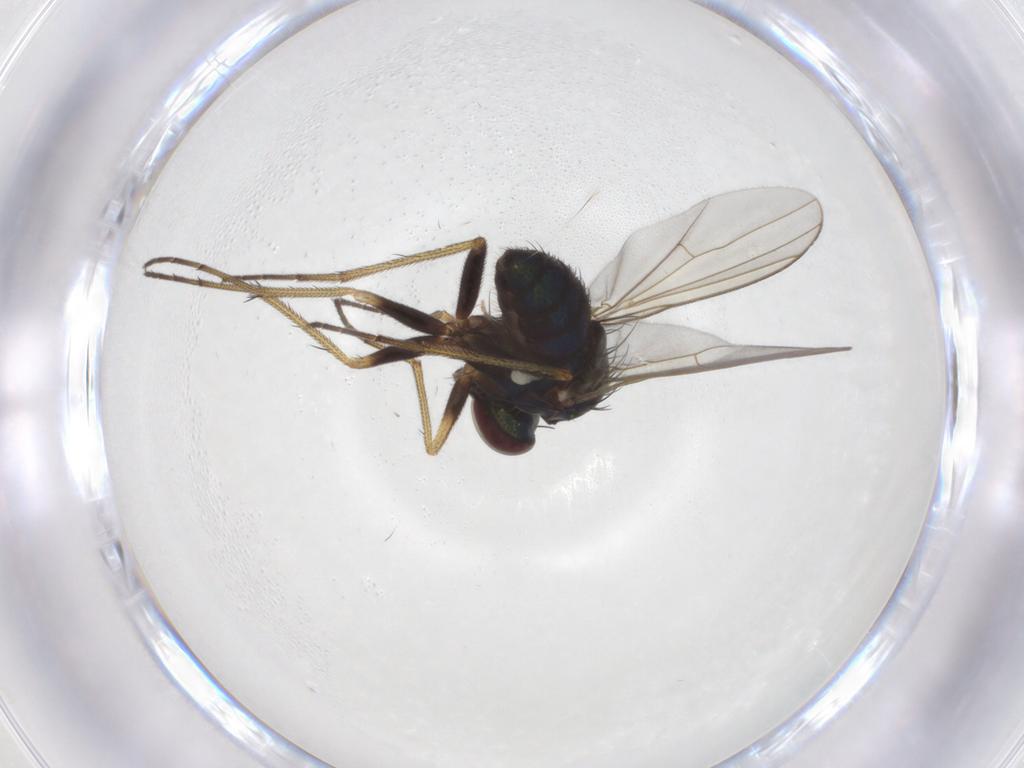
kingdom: Animalia
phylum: Arthropoda
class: Insecta
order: Diptera
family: Dolichopodidae
